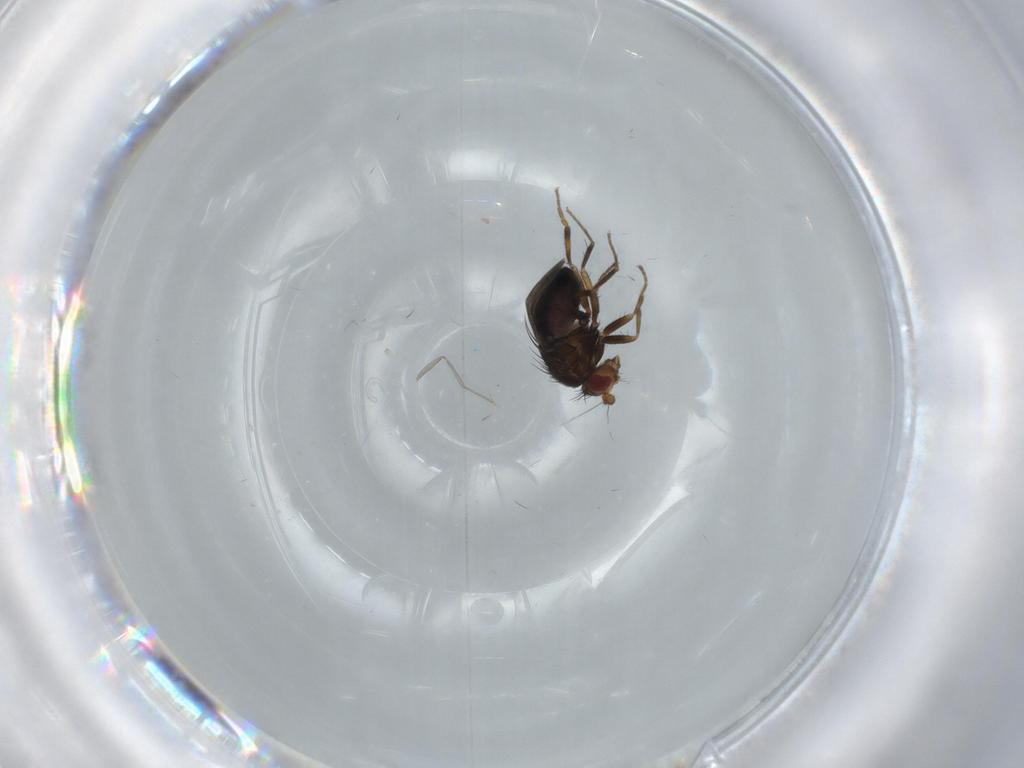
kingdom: Animalia
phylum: Arthropoda
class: Insecta
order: Diptera
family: Sphaeroceridae
